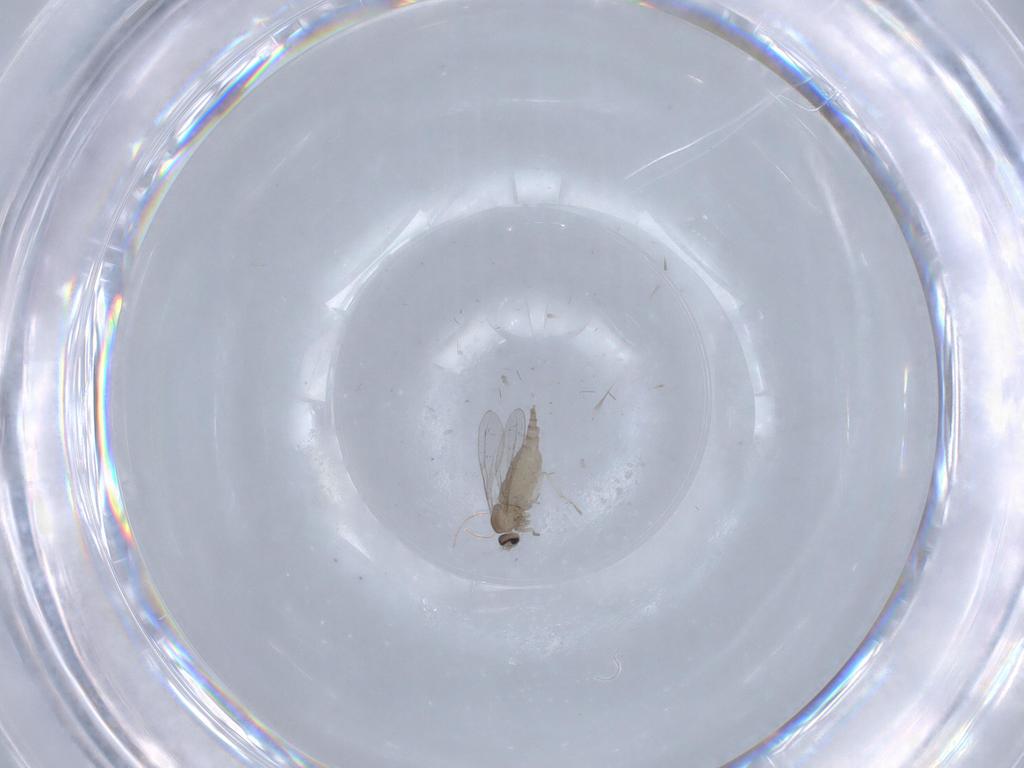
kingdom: Animalia
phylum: Arthropoda
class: Insecta
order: Diptera
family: Cecidomyiidae
